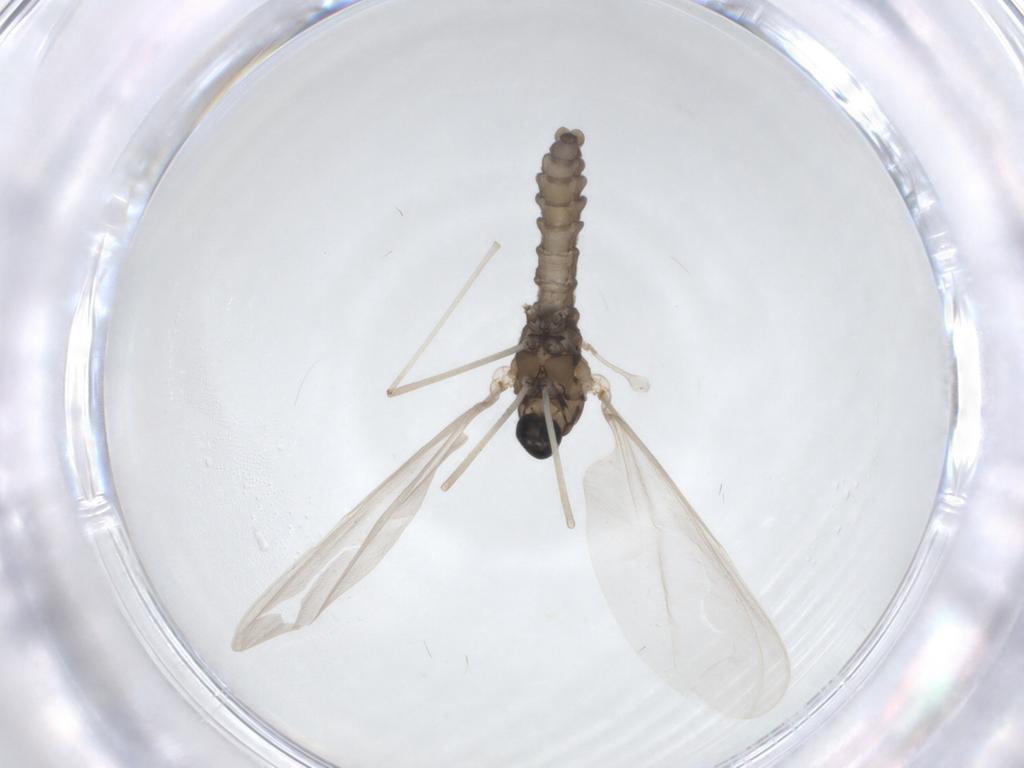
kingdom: Animalia
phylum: Arthropoda
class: Insecta
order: Diptera
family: Cecidomyiidae
